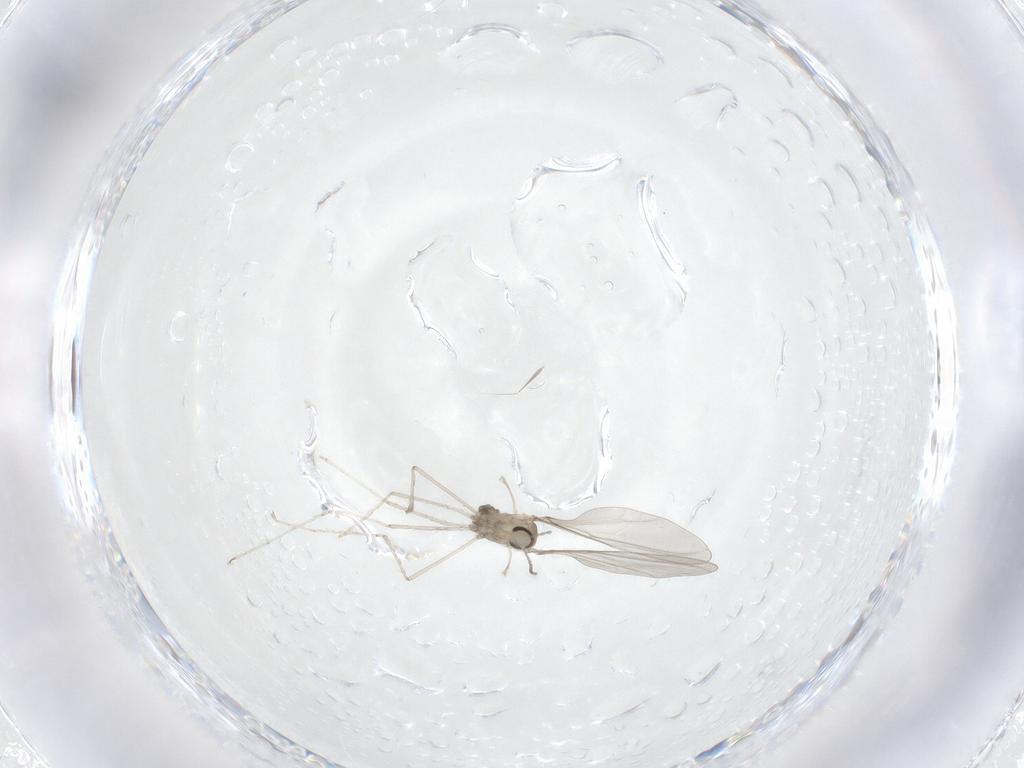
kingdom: Animalia
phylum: Arthropoda
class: Insecta
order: Diptera
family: Cecidomyiidae
